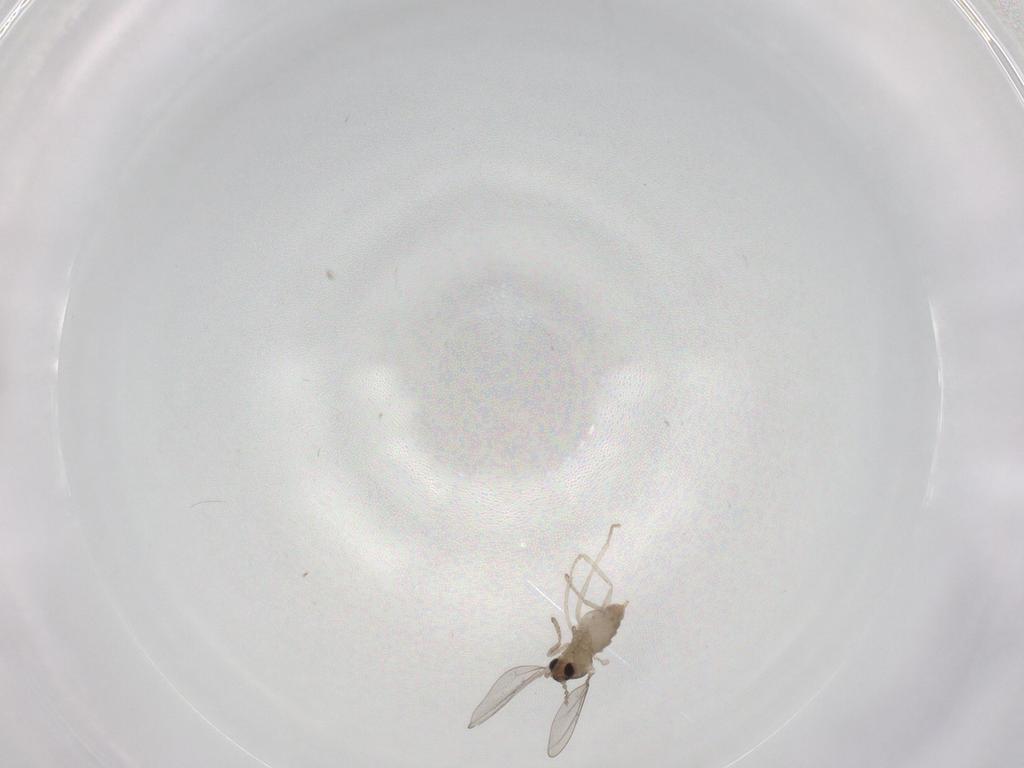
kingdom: Animalia
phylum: Arthropoda
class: Insecta
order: Diptera
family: Cecidomyiidae
